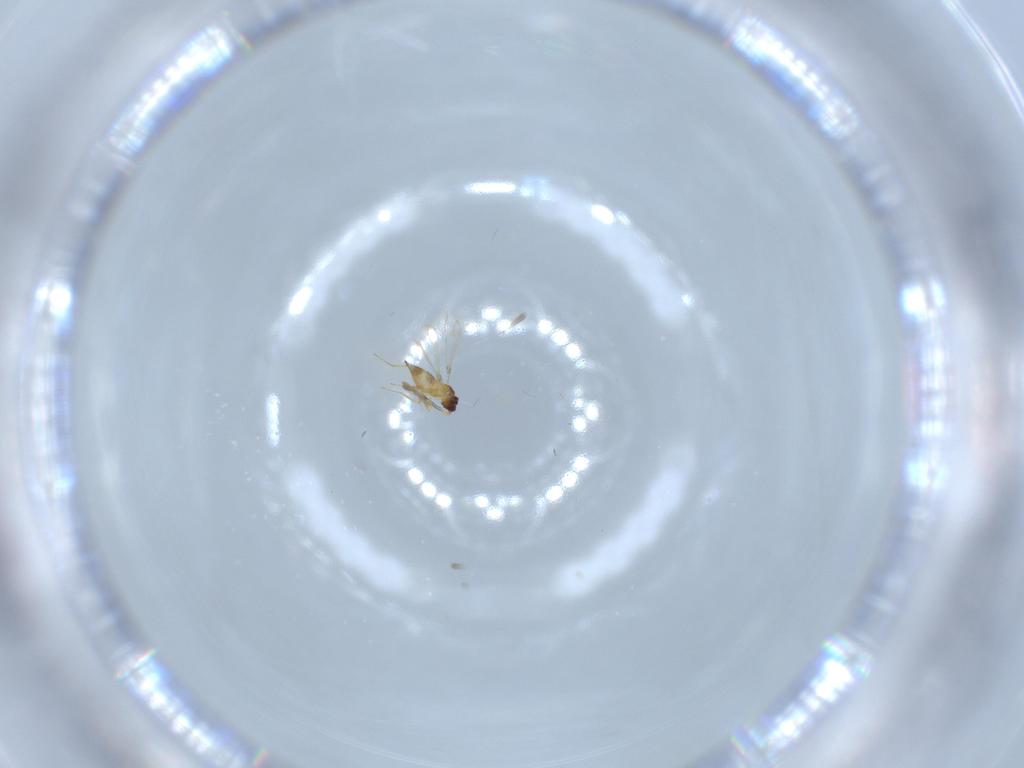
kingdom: Animalia
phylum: Arthropoda
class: Insecta
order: Hymenoptera
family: Mymaridae
